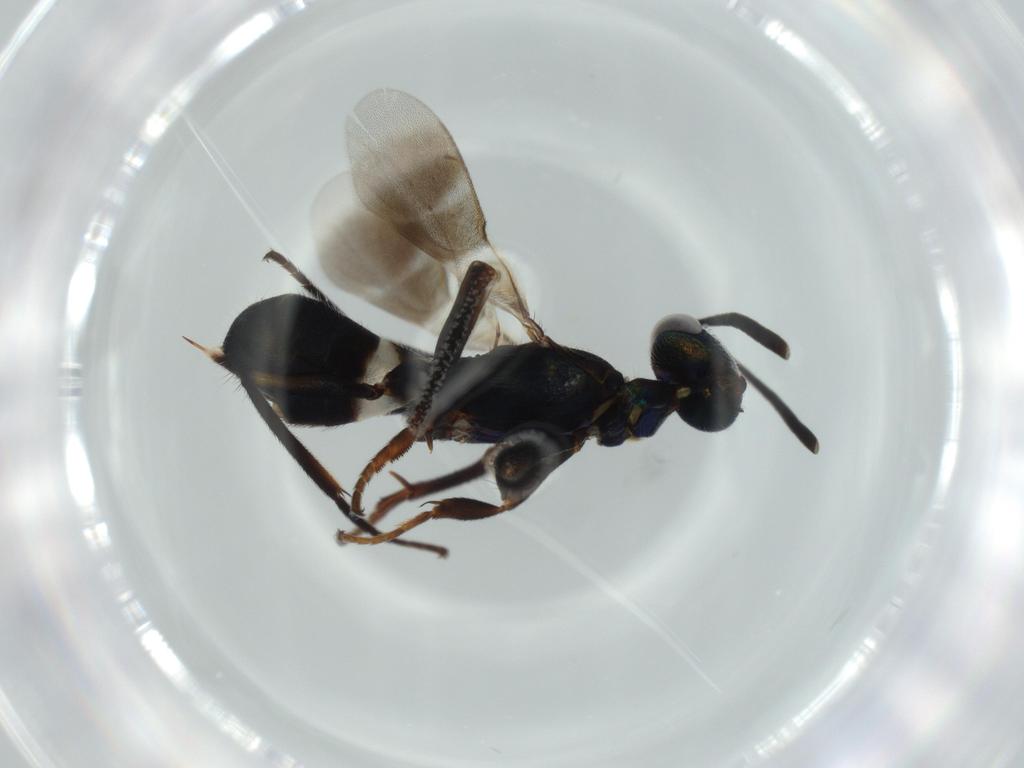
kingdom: Animalia
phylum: Arthropoda
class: Insecta
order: Hymenoptera
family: Eupelmidae
